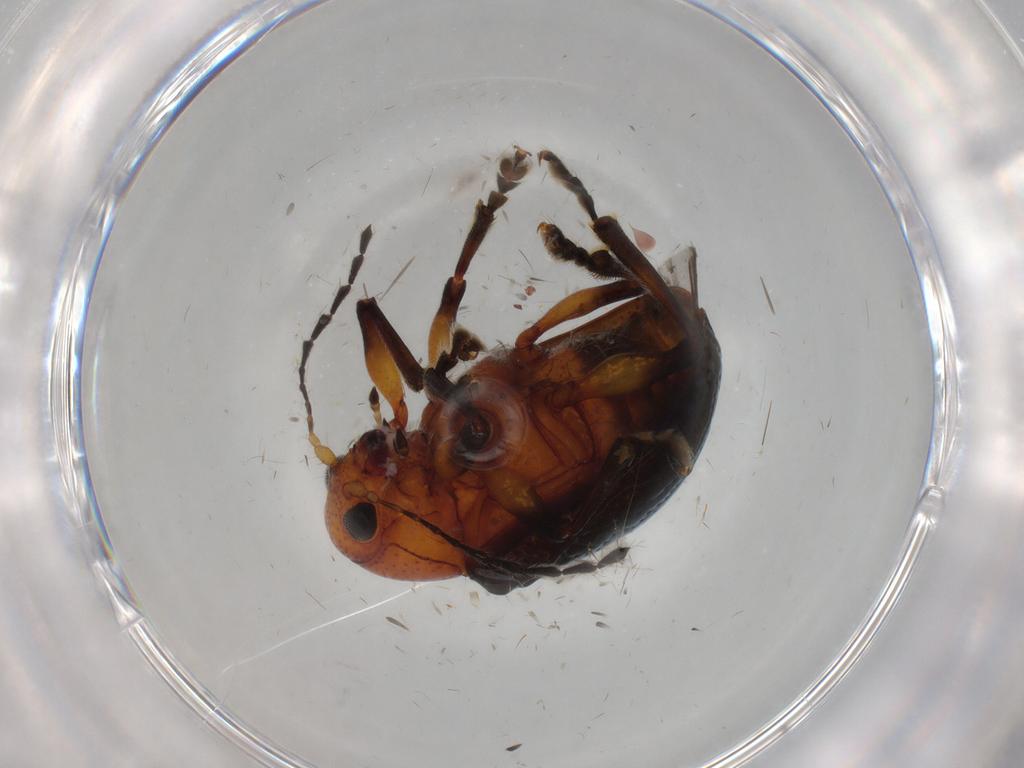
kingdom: Animalia
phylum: Arthropoda
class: Insecta
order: Coleoptera
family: Chrysomelidae
